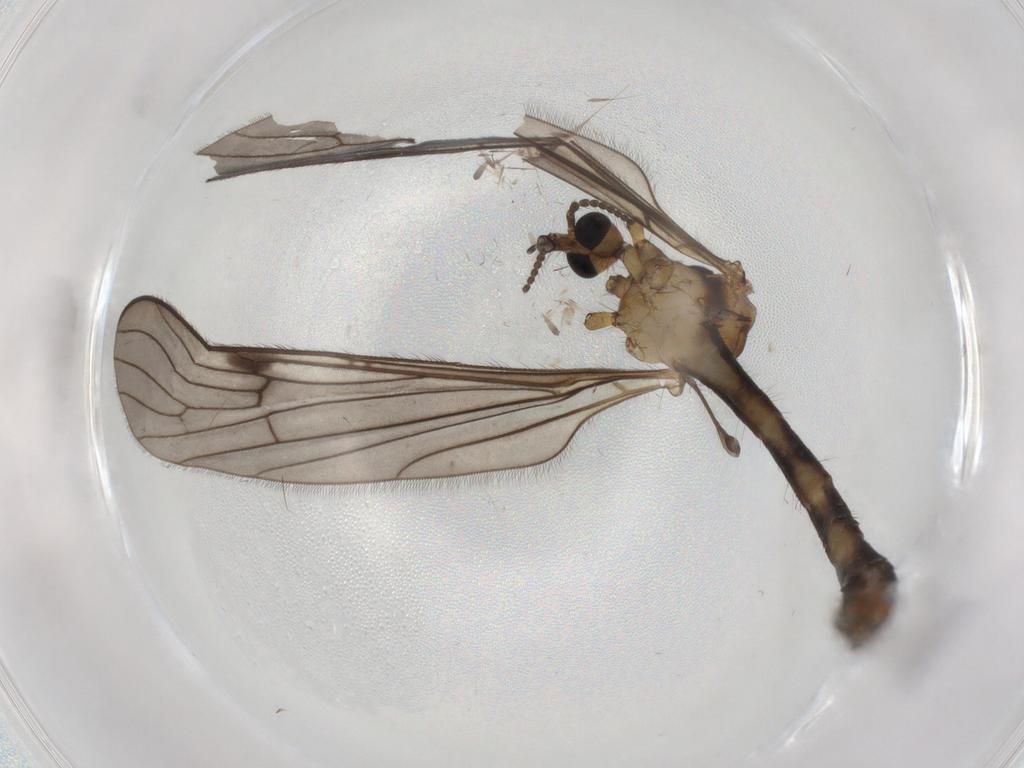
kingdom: Animalia
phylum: Arthropoda
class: Insecta
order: Diptera
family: Limoniidae
